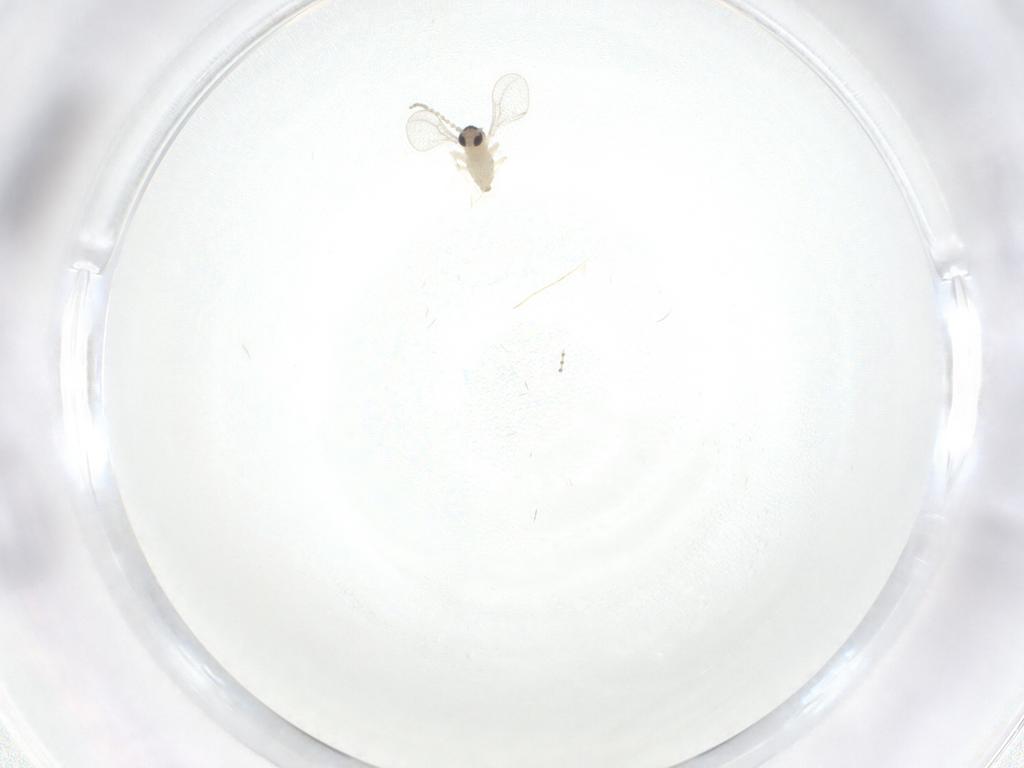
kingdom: Animalia
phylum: Arthropoda
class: Insecta
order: Diptera
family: Cecidomyiidae
